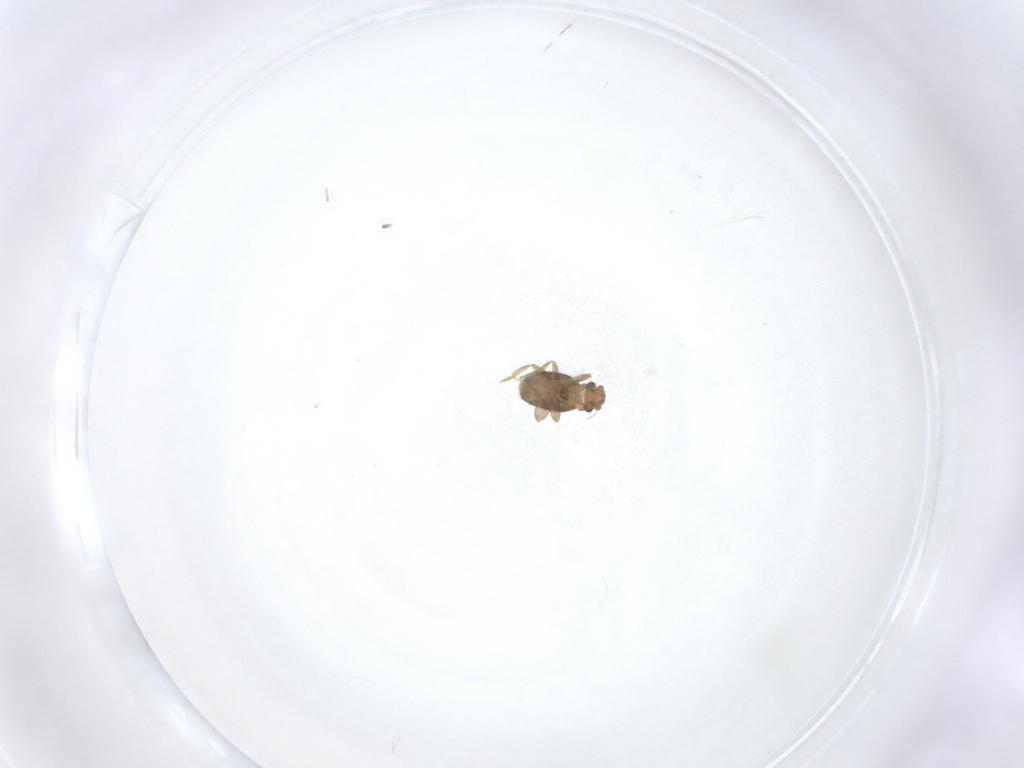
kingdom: Animalia
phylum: Arthropoda
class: Insecta
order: Diptera
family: Phoridae
